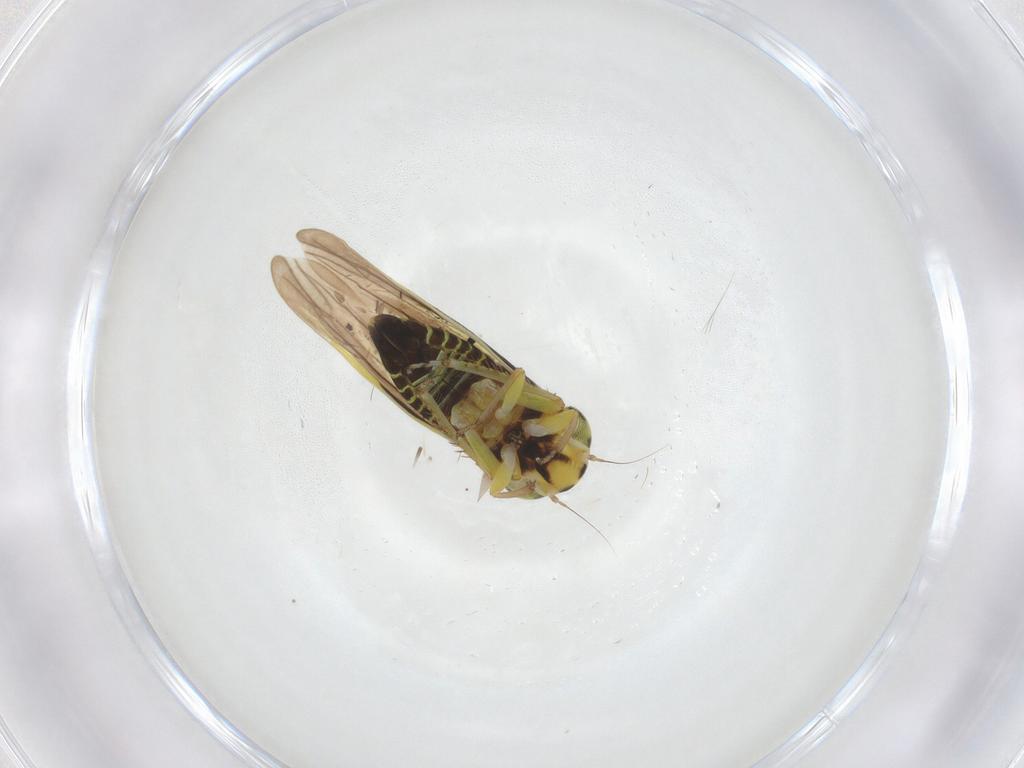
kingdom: Animalia
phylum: Arthropoda
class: Insecta
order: Hemiptera
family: Cicadellidae
